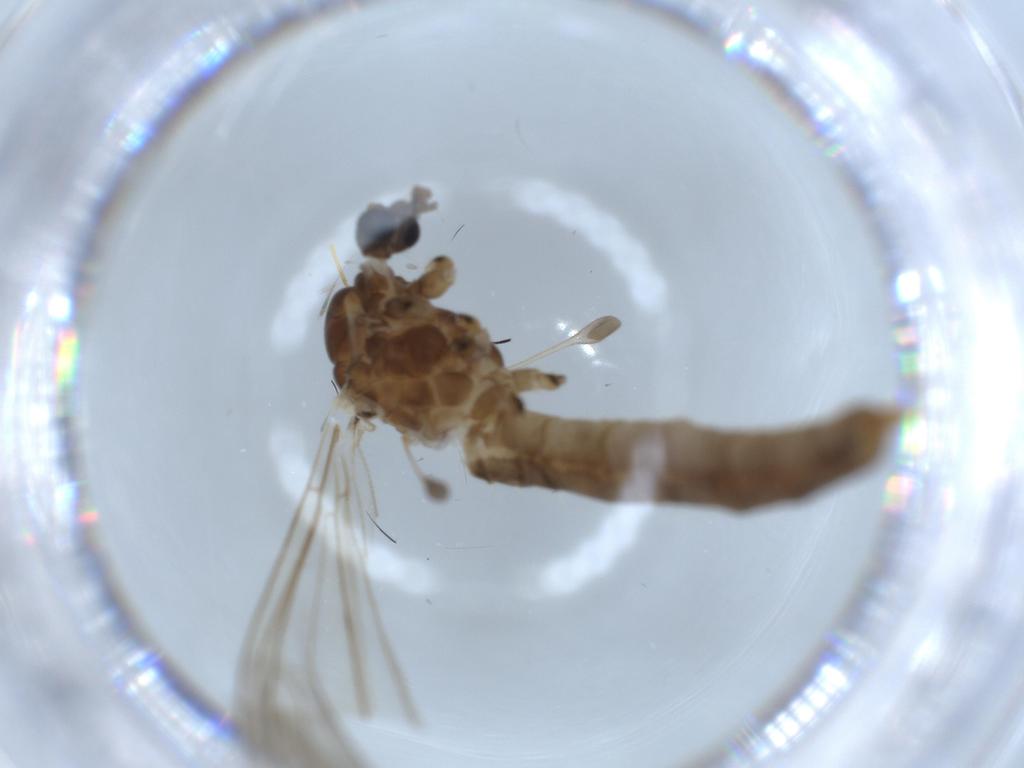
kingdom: Animalia
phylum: Arthropoda
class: Insecta
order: Diptera
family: Trichoceridae
